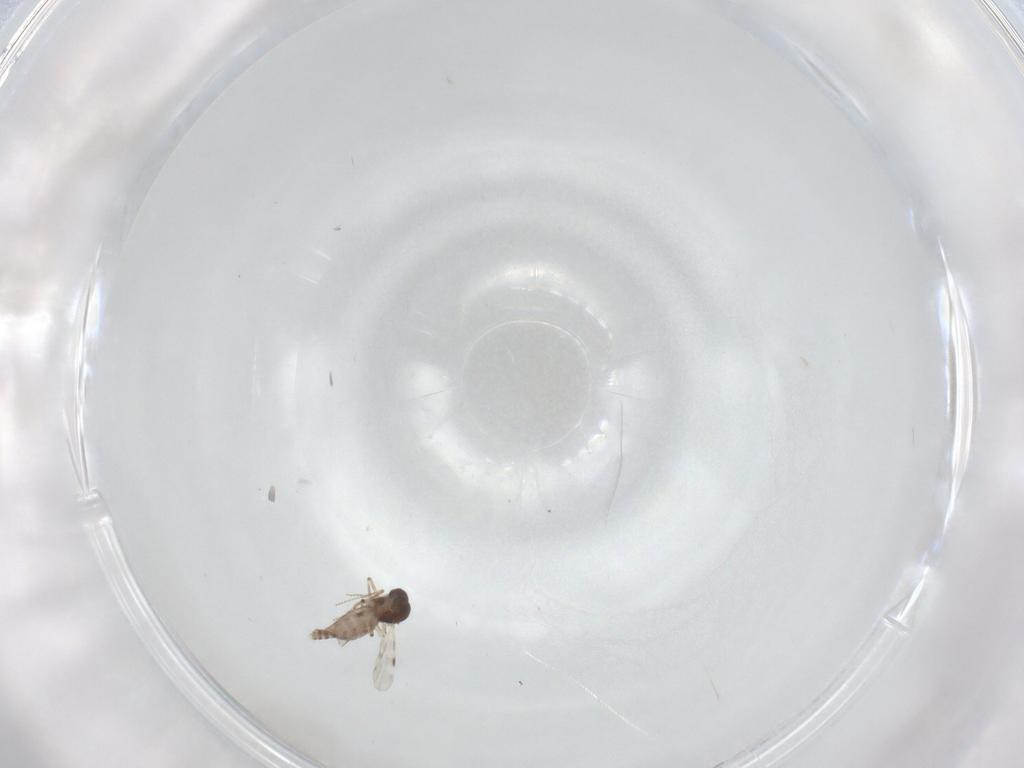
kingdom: Animalia
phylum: Arthropoda
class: Insecta
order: Diptera
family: Cecidomyiidae
